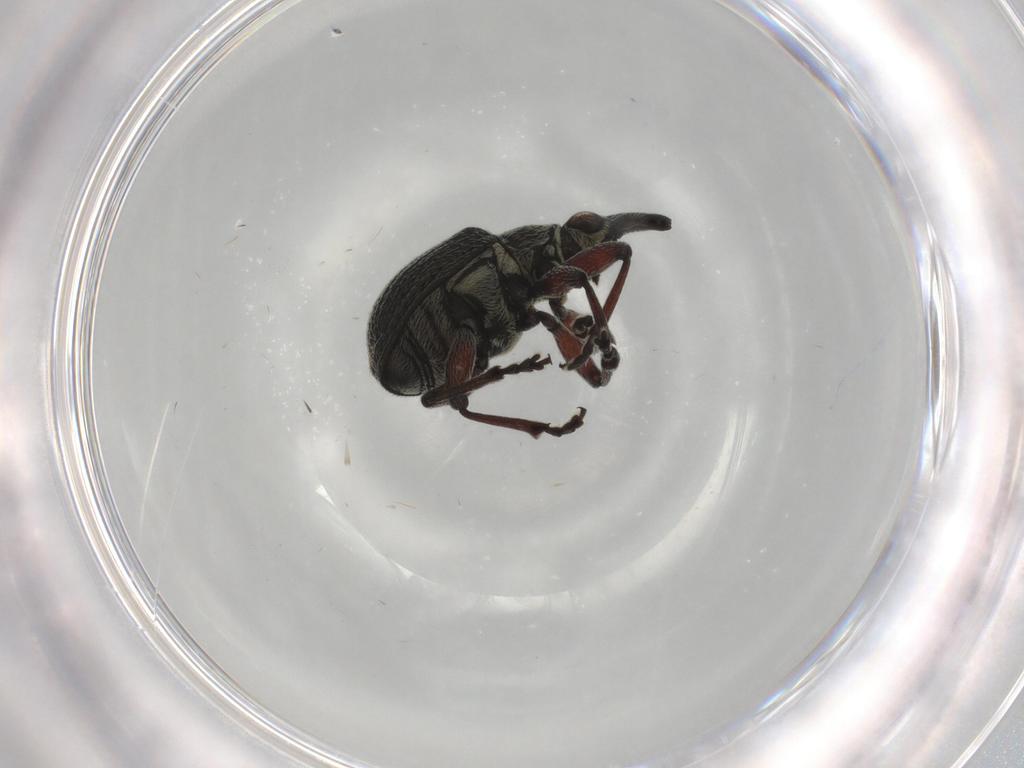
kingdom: Animalia
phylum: Arthropoda
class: Insecta
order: Coleoptera
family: Brentidae
